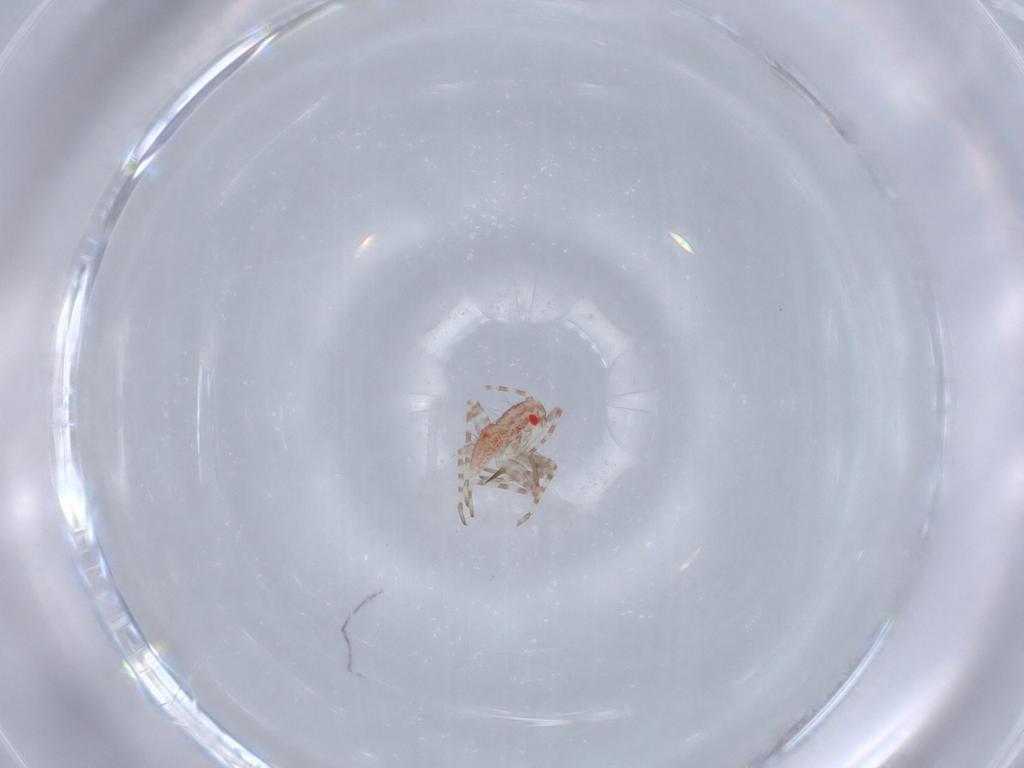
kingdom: Animalia
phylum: Arthropoda
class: Insecta
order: Hemiptera
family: Miridae
